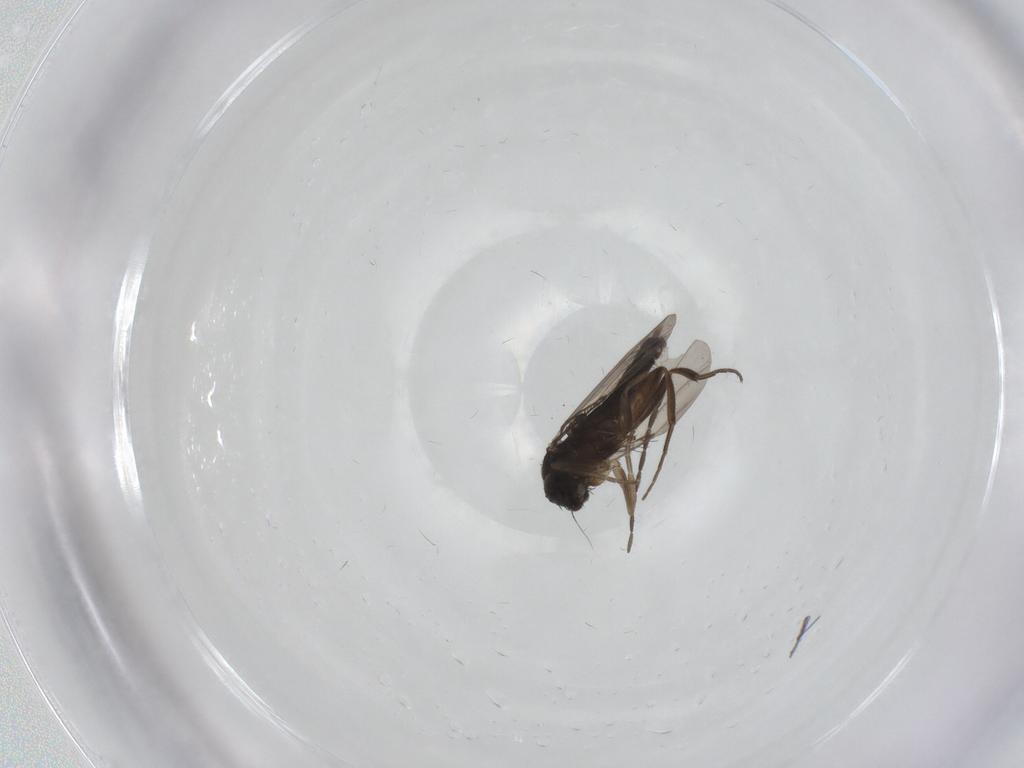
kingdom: Animalia
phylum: Arthropoda
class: Insecta
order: Diptera
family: Phoridae
